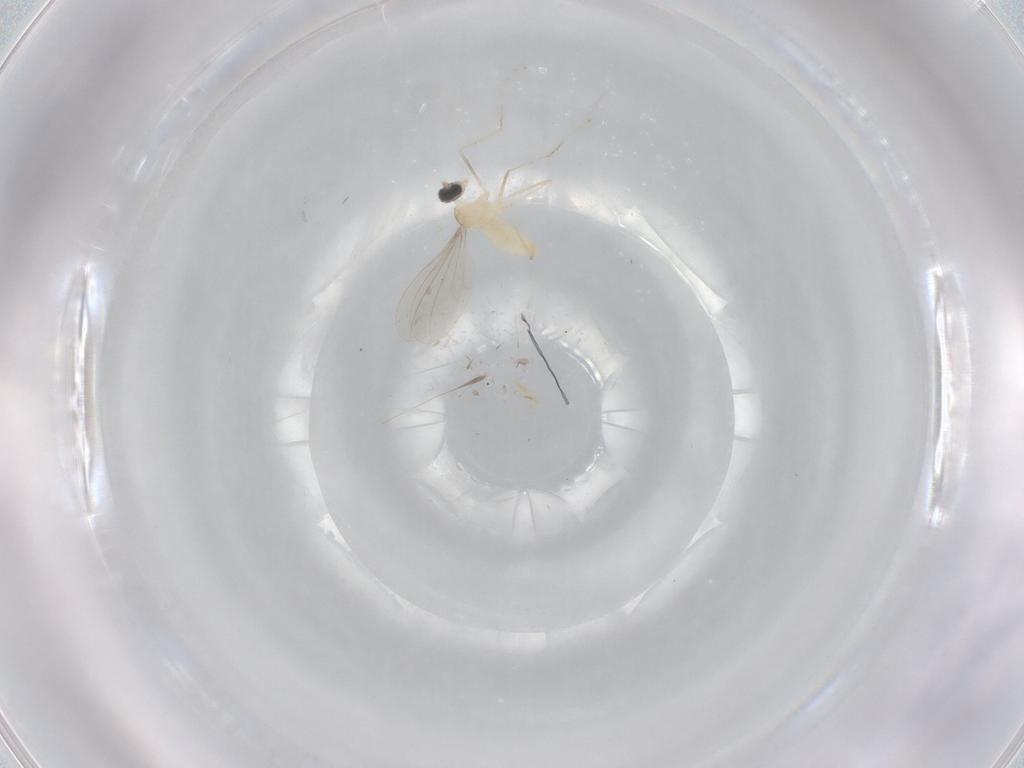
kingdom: Animalia
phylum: Arthropoda
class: Insecta
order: Diptera
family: Cecidomyiidae
